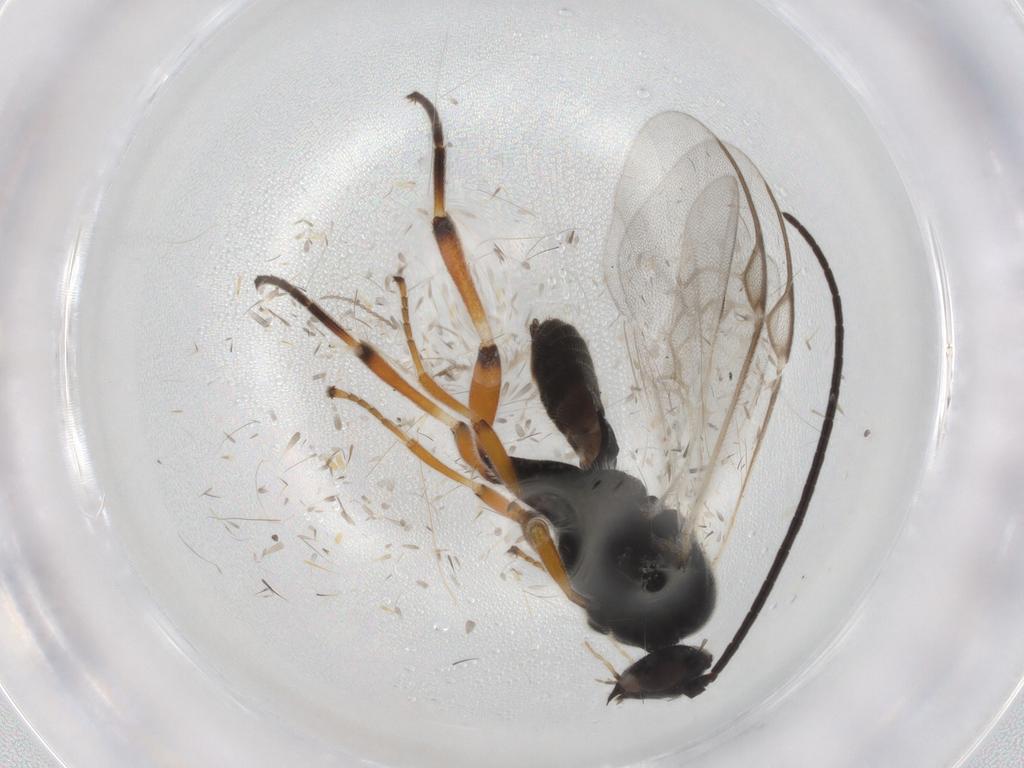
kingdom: Animalia
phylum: Arthropoda
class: Insecta
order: Hymenoptera
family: Braconidae
